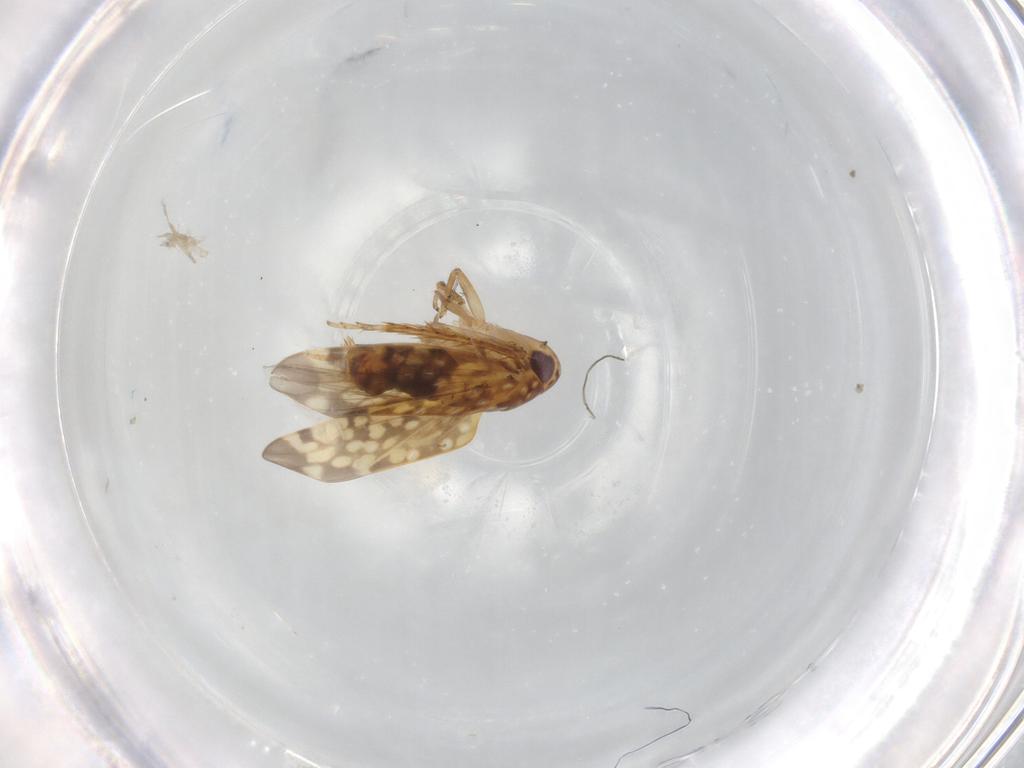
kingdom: Animalia
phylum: Arthropoda
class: Insecta
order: Hemiptera
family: Cicadellidae
